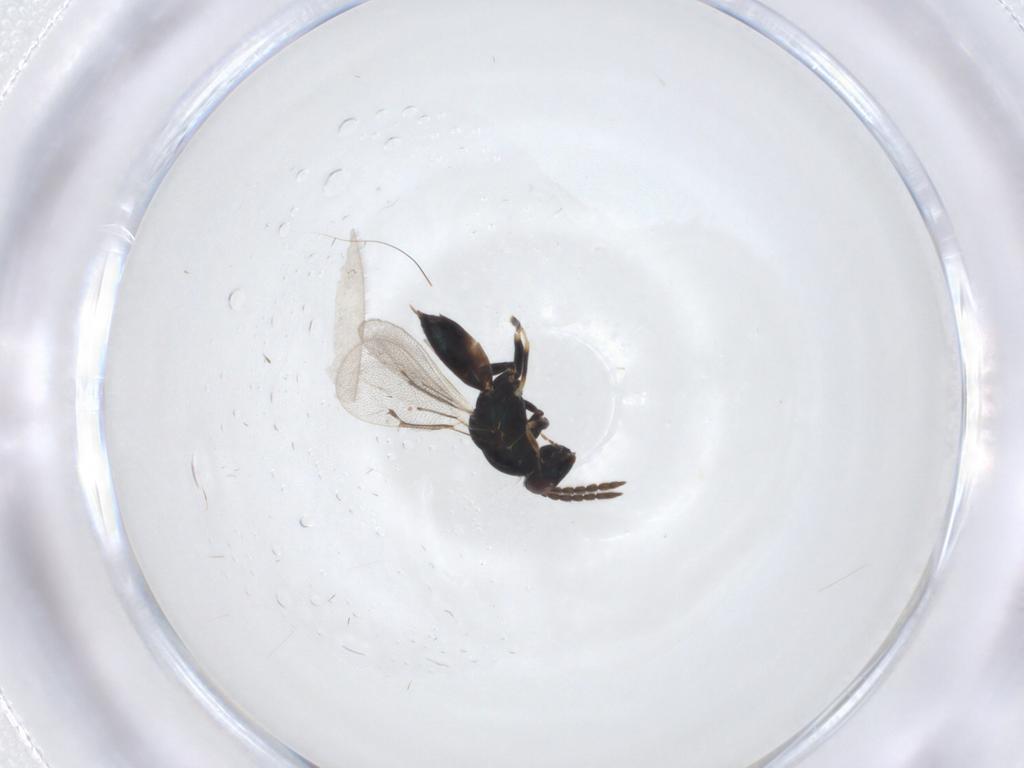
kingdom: Animalia
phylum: Arthropoda
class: Insecta
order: Hymenoptera
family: Eulophidae
